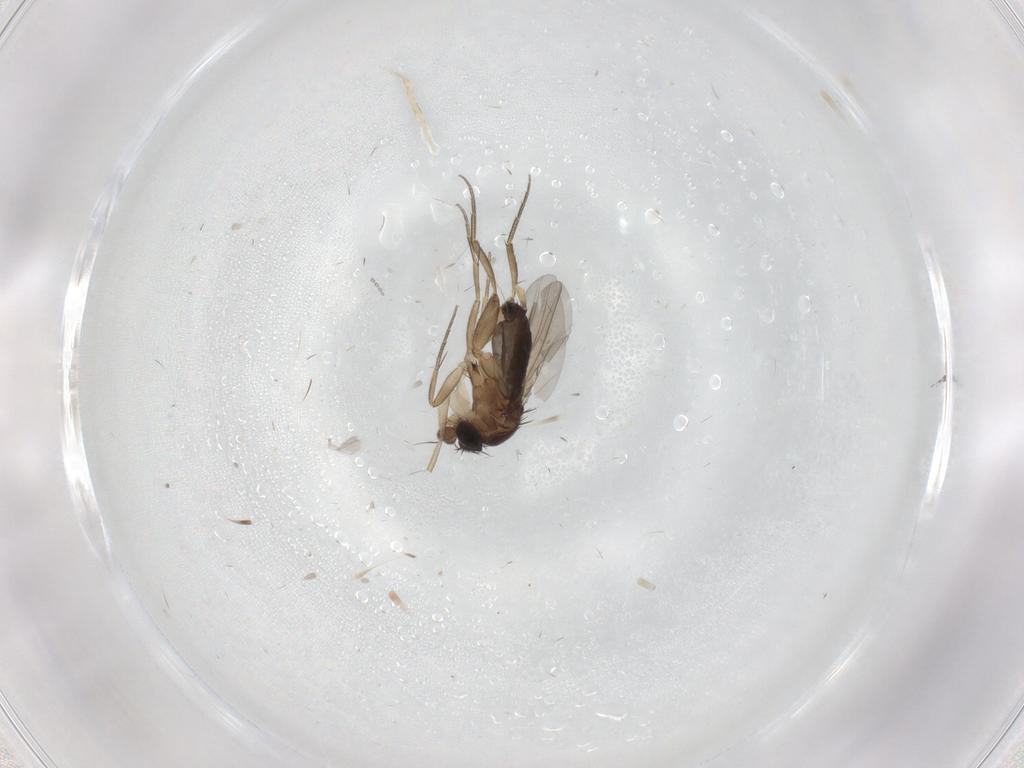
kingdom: Animalia
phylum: Arthropoda
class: Insecta
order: Diptera
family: Phoridae
